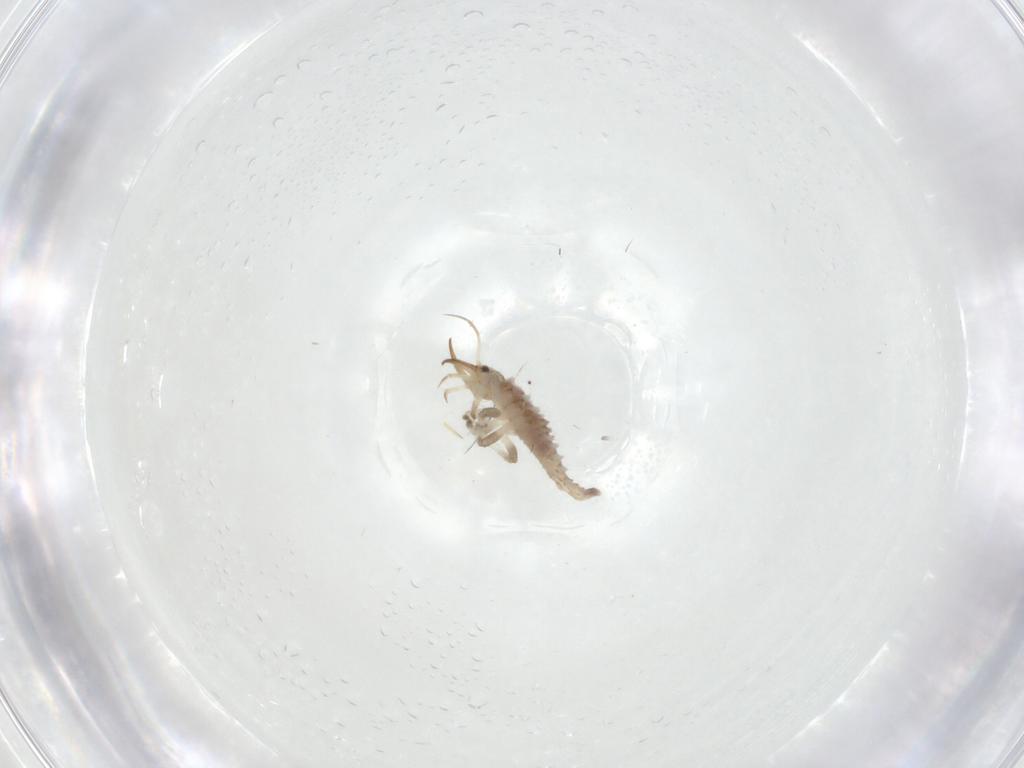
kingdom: Animalia
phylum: Arthropoda
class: Insecta
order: Neuroptera
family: Chrysopidae
